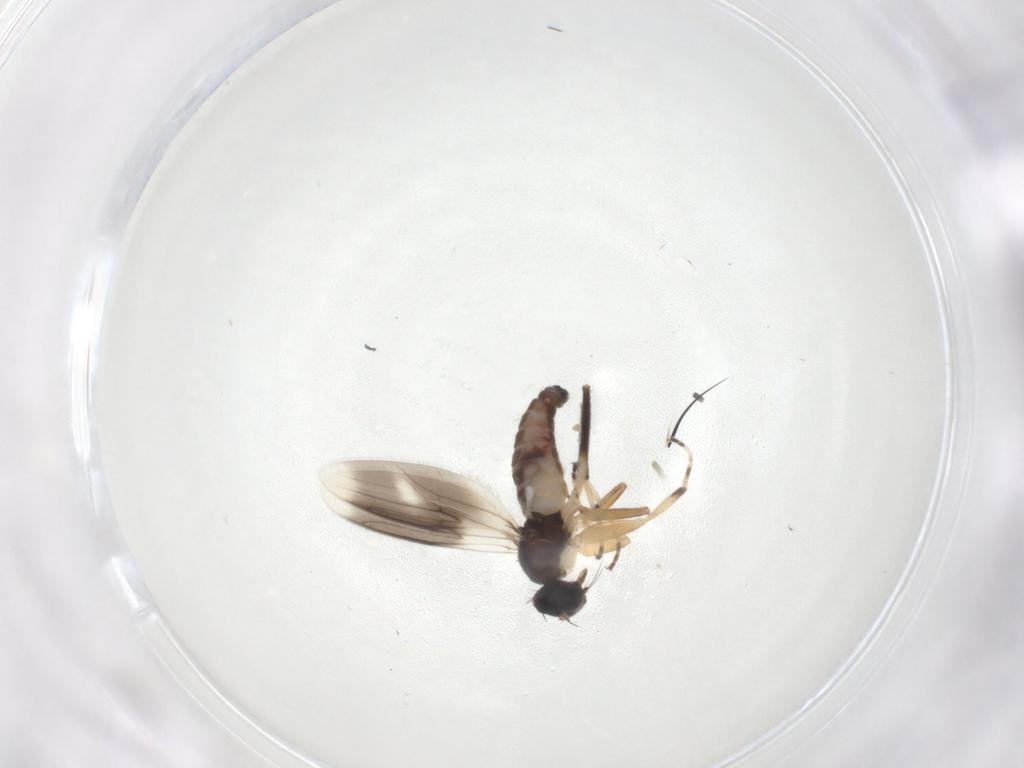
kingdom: Animalia
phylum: Arthropoda
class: Insecta
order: Diptera
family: Hybotidae
